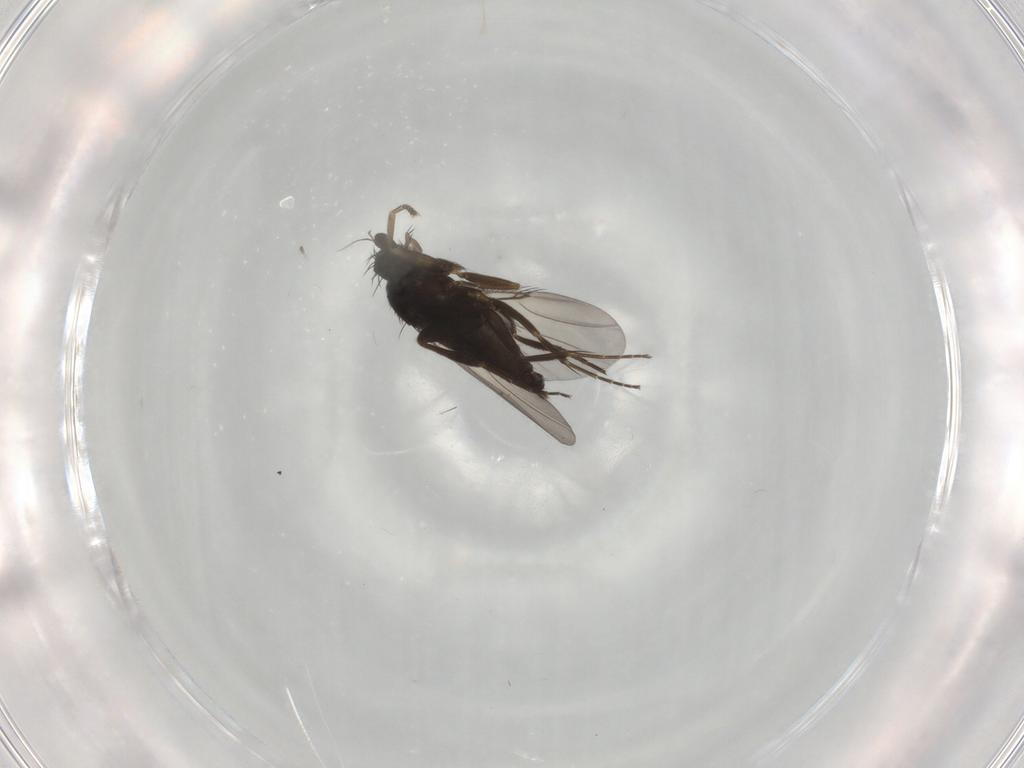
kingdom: Animalia
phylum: Arthropoda
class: Insecta
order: Diptera
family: Phoridae
